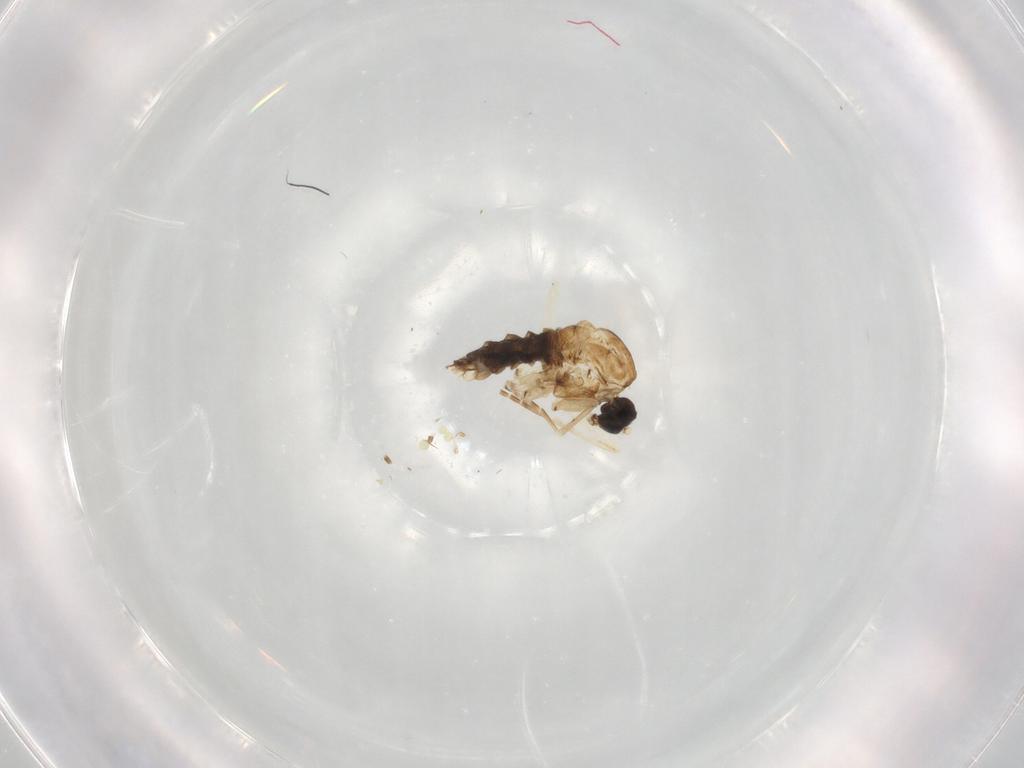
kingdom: Animalia
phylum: Arthropoda
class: Insecta
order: Diptera
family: Sciaridae
